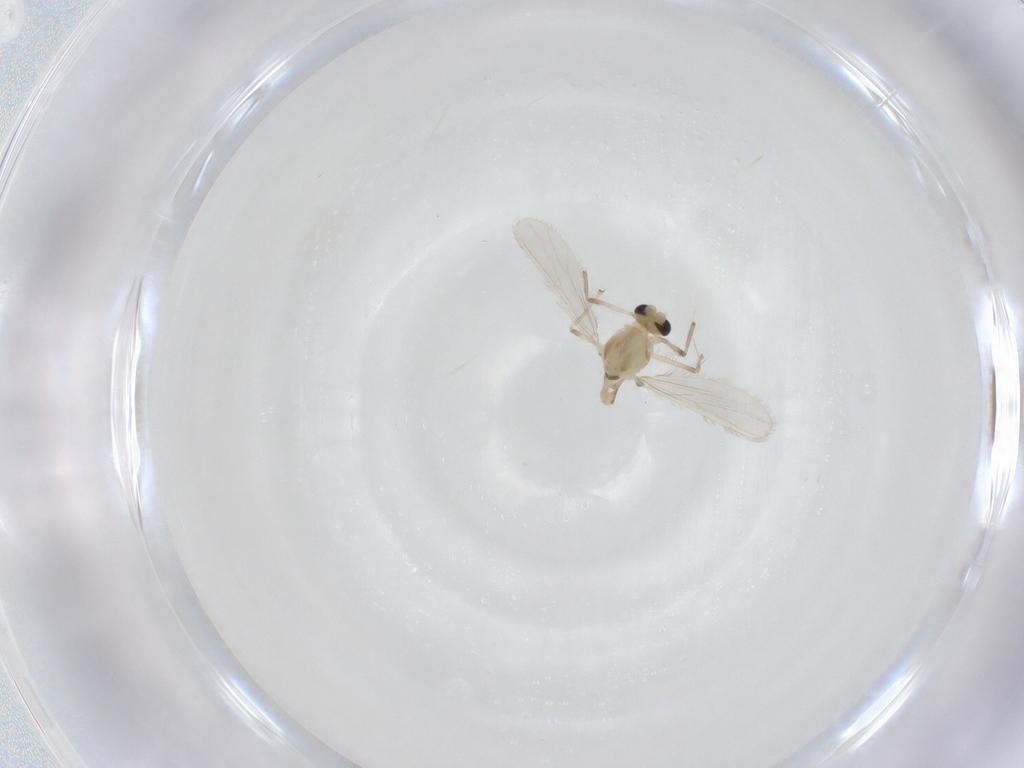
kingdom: Animalia
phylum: Arthropoda
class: Insecta
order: Diptera
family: Chironomidae
